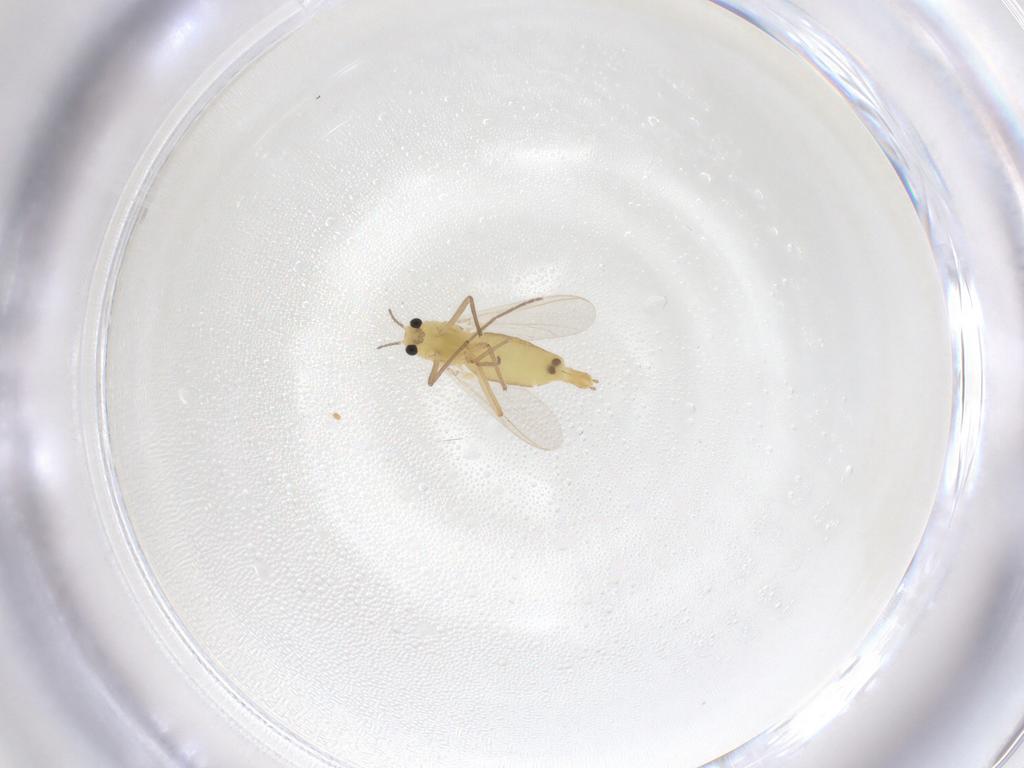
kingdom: Animalia
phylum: Arthropoda
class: Insecta
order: Diptera
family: Chironomidae
